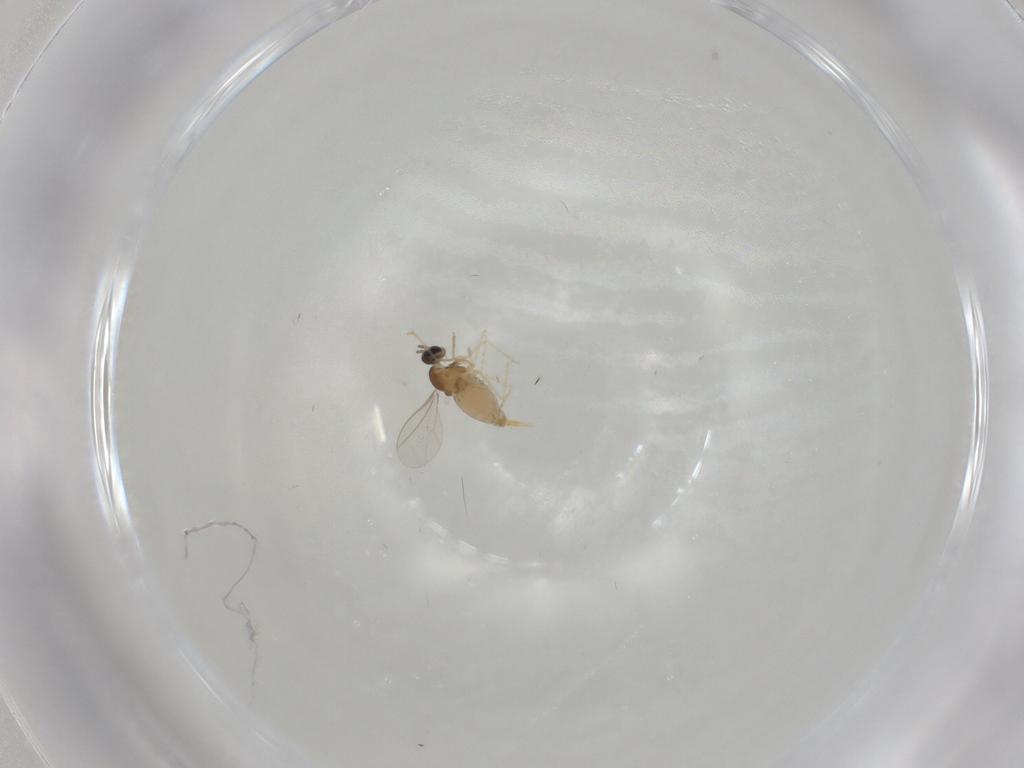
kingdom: Animalia
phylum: Arthropoda
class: Insecta
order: Diptera
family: Cecidomyiidae
